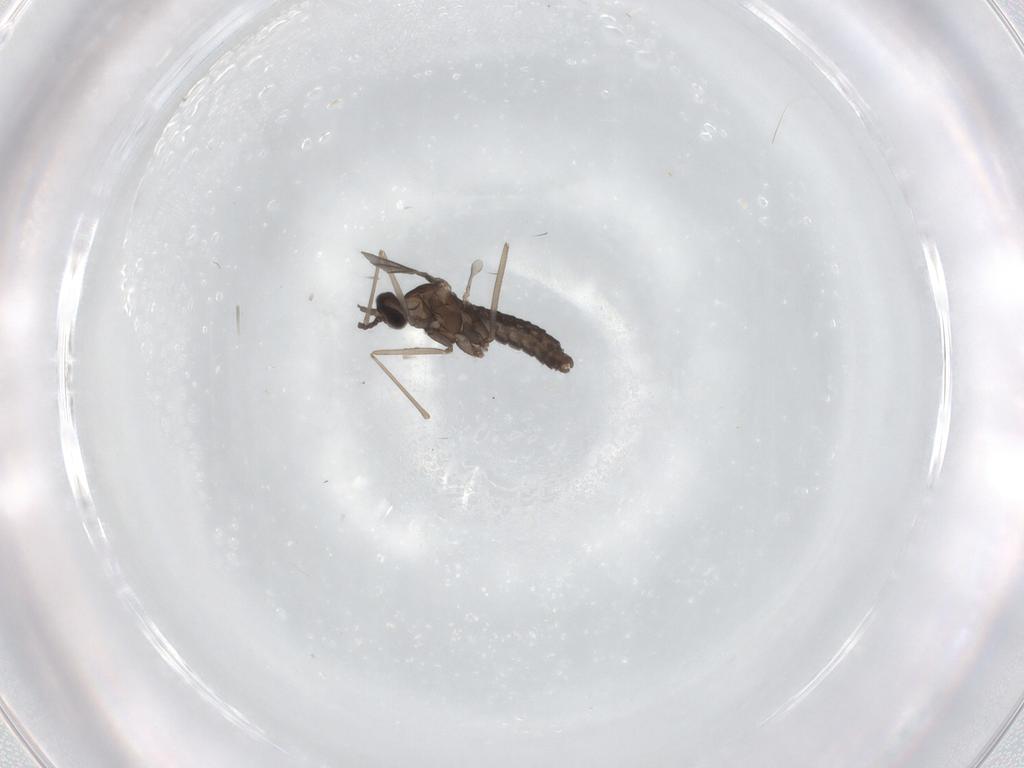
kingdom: Animalia
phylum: Arthropoda
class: Insecta
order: Diptera
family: Cecidomyiidae
